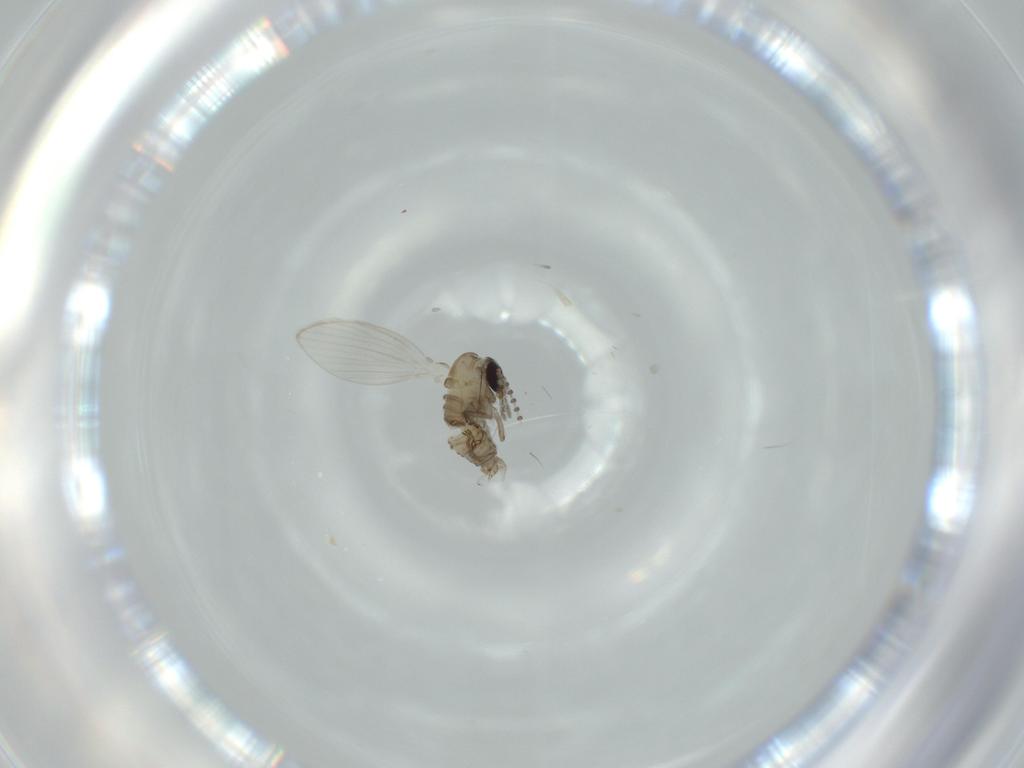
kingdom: Animalia
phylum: Arthropoda
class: Insecta
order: Diptera
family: Psychodidae
